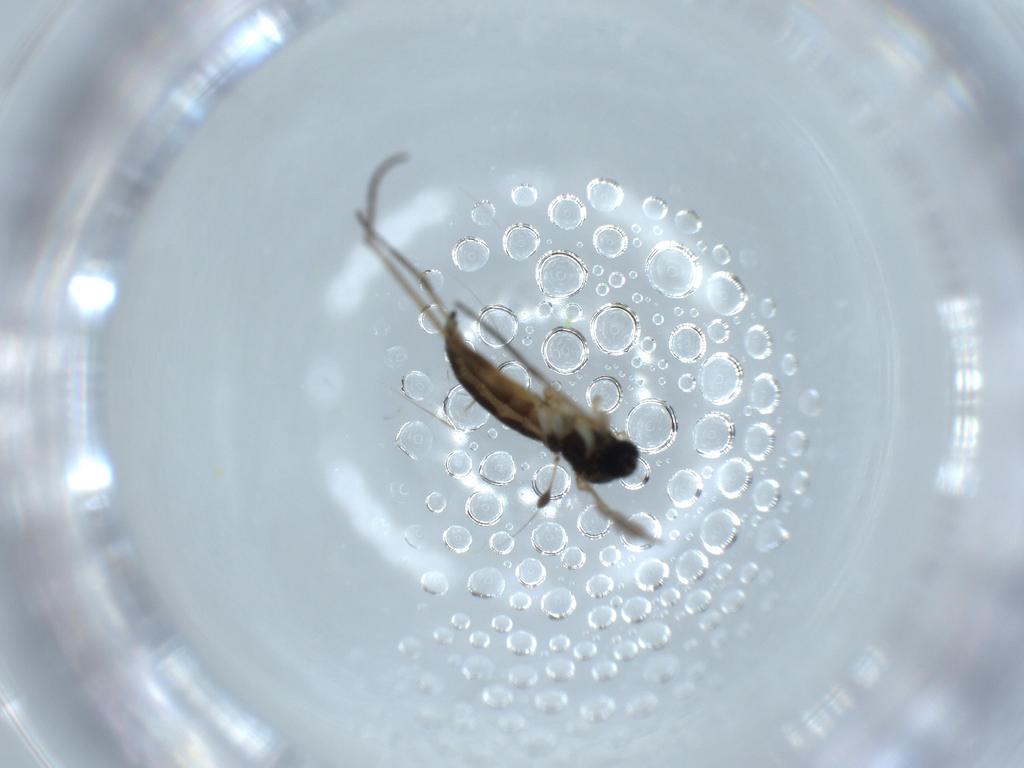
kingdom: Animalia
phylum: Arthropoda
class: Insecta
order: Diptera
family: Sciaridae
